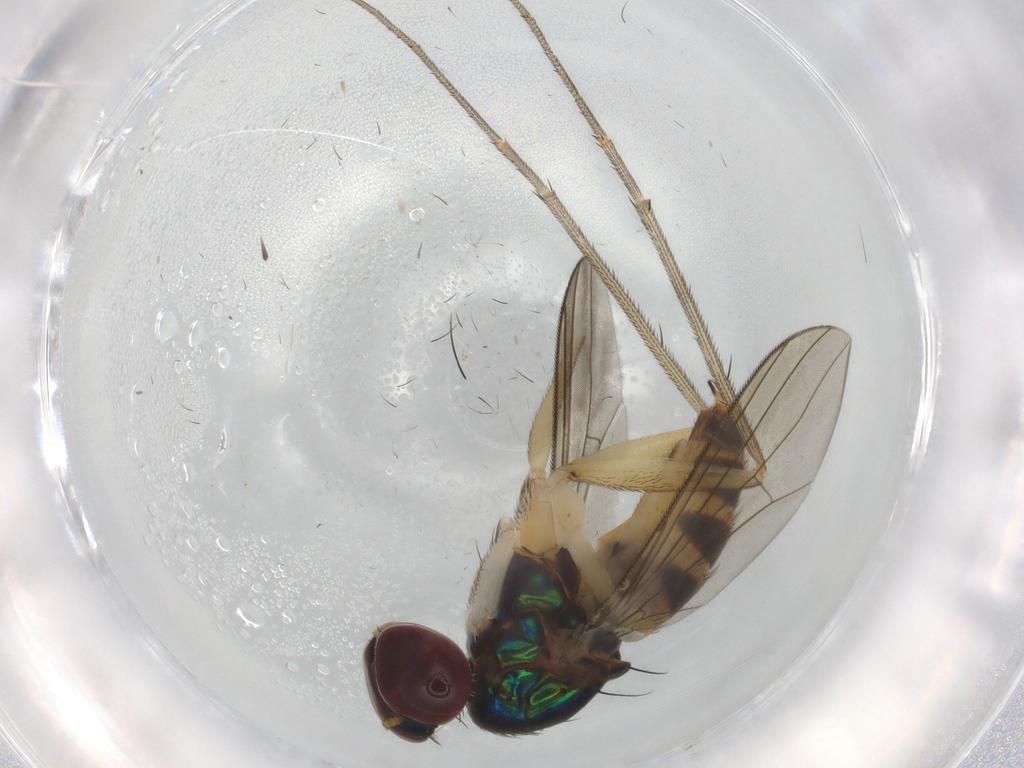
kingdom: Animalia
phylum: Arthropoda
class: Insecta
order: Diptera
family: Dolichopodidae
